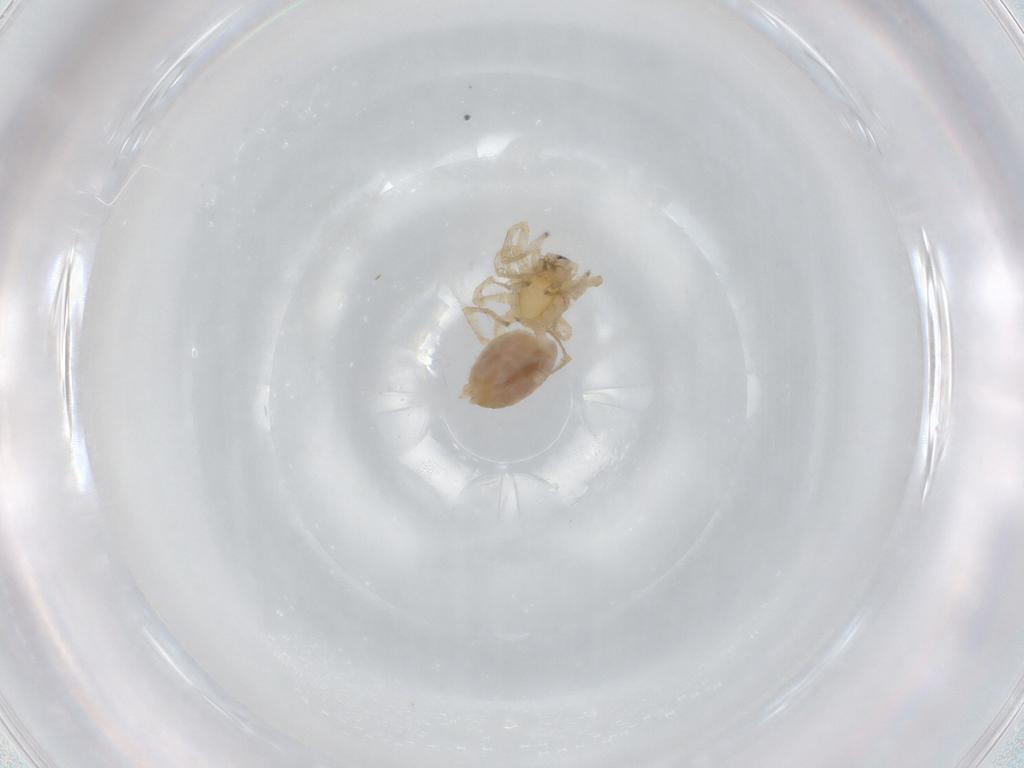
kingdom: Animalia
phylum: Arthropoda
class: Arachnida
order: Araneae
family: Anyphaenidae
